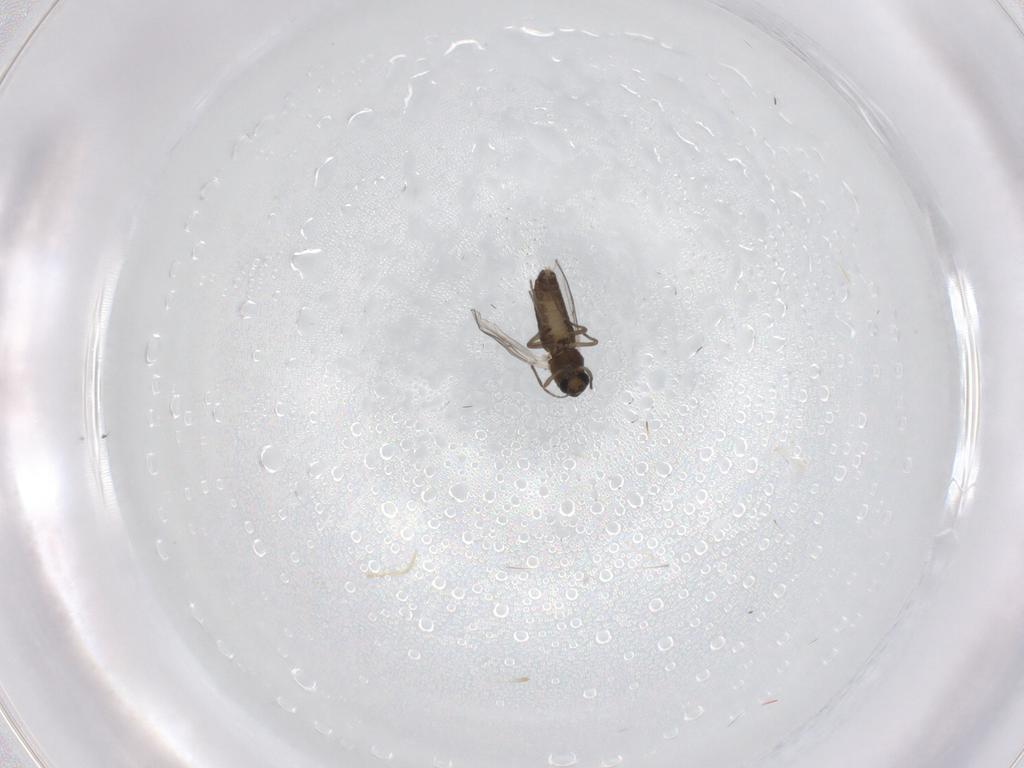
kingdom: Animalia
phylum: Arthropoda
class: Insecta
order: Diptera
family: Chironomidae
